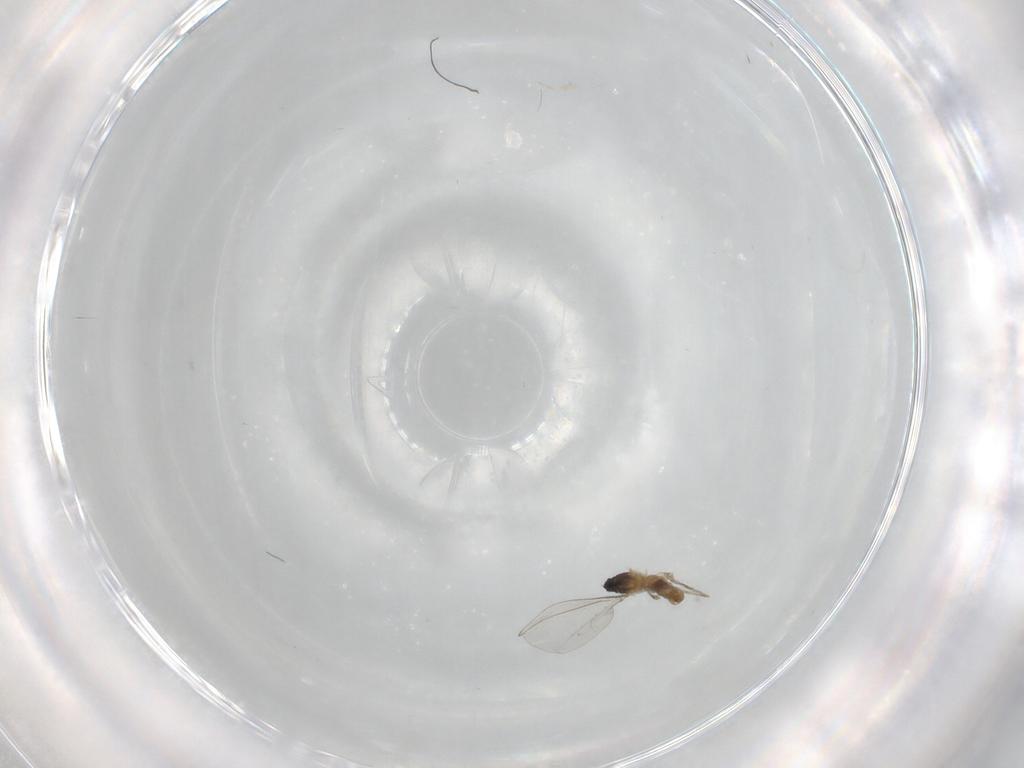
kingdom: Animalia
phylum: Arthropoda
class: Insecta
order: Diptera
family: Cecidomyiidae
